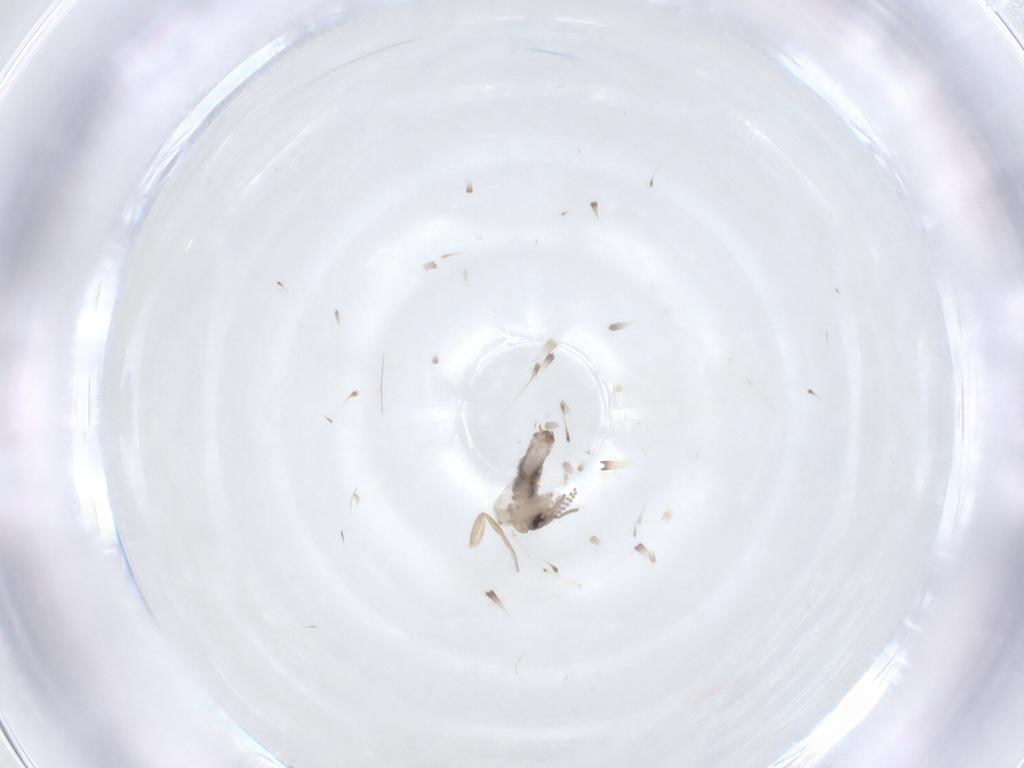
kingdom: Animalia
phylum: Arthropoda
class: Insecta
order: Diptera
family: Psychodidae
